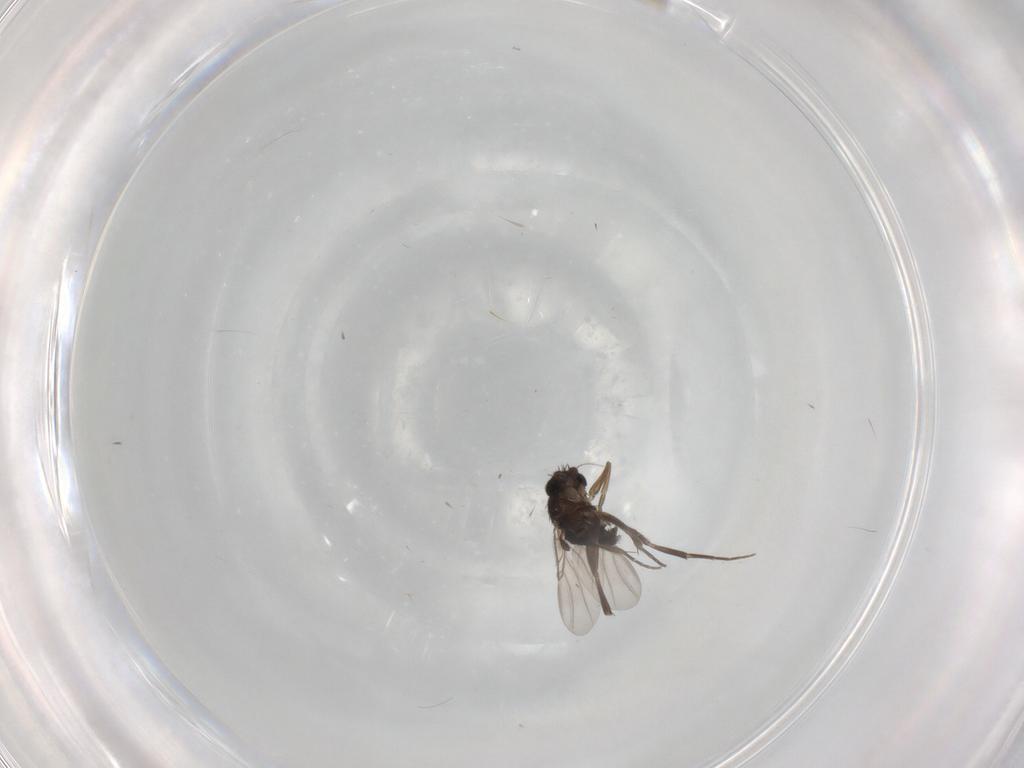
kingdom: Animalia
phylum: Arthropoda
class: Insecta
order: Diptera
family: Phoridae
